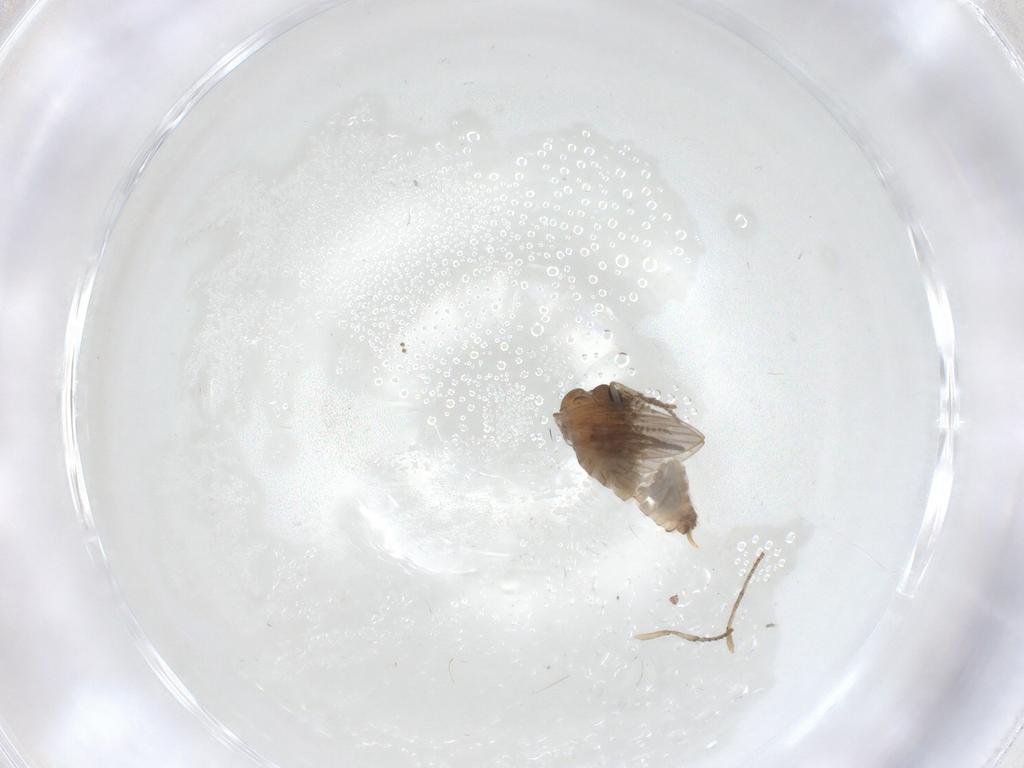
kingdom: Animalia
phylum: Arthropoda
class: Insecta
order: Diptera
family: Psychodidae
